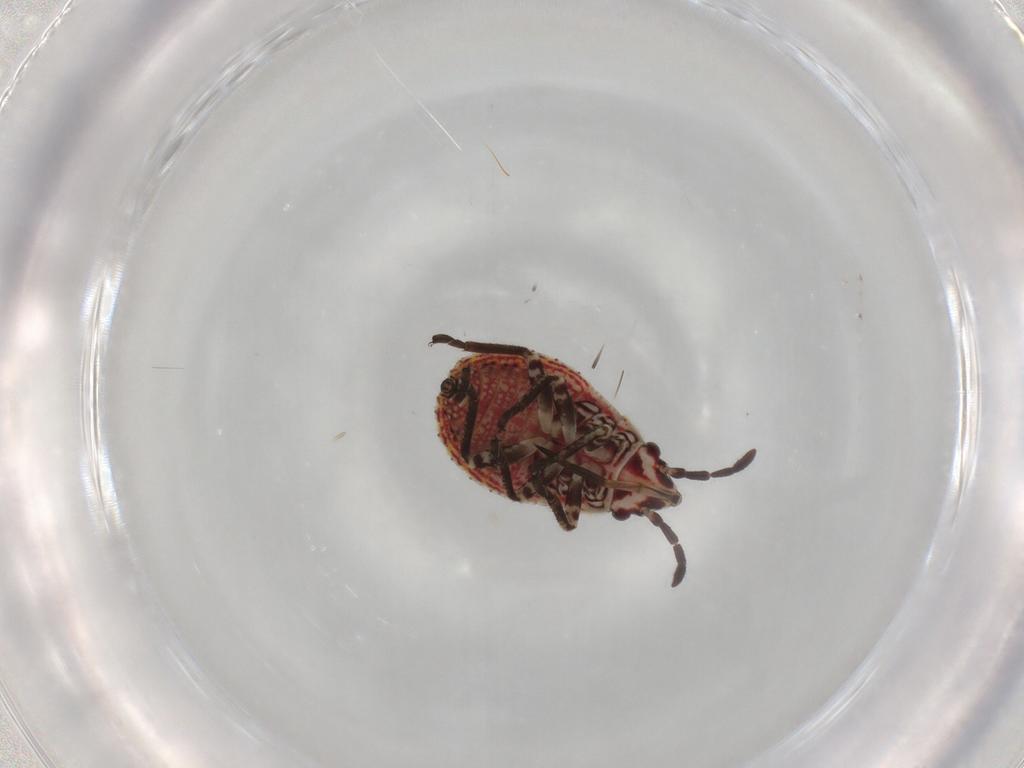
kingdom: Animalia
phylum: Arthropoda
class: Insecta
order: Hemiptera
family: Lygaeidae
